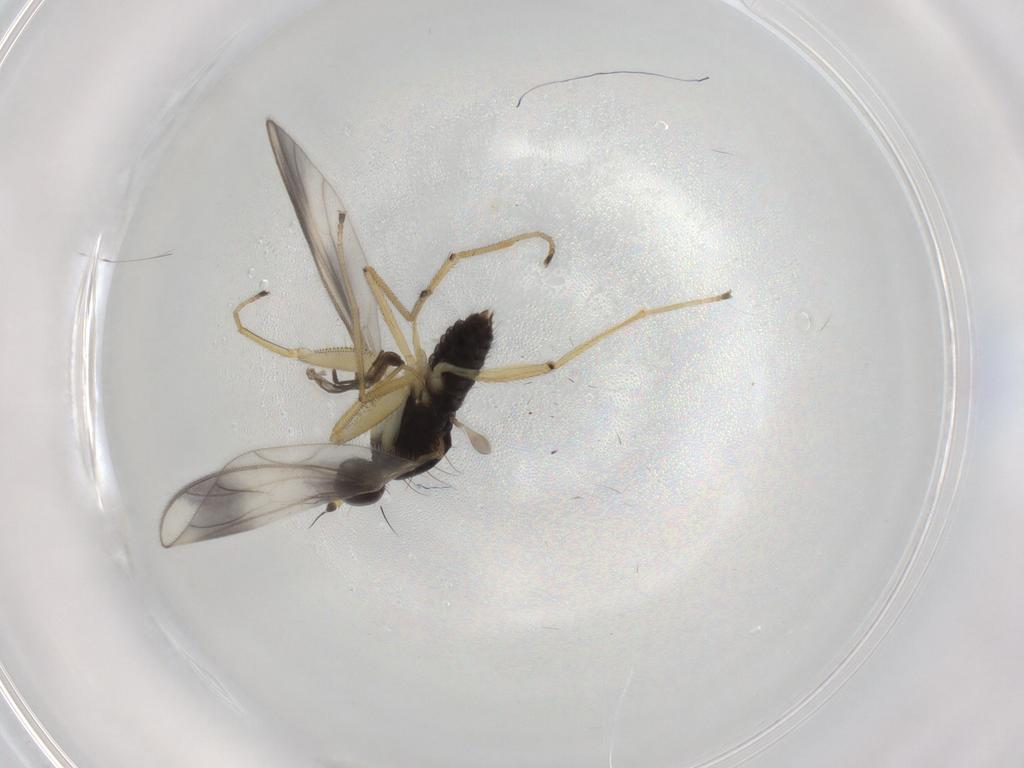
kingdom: Animalia
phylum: Arthropoda
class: Insecta
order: Diptera
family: Cecidomyiidae
